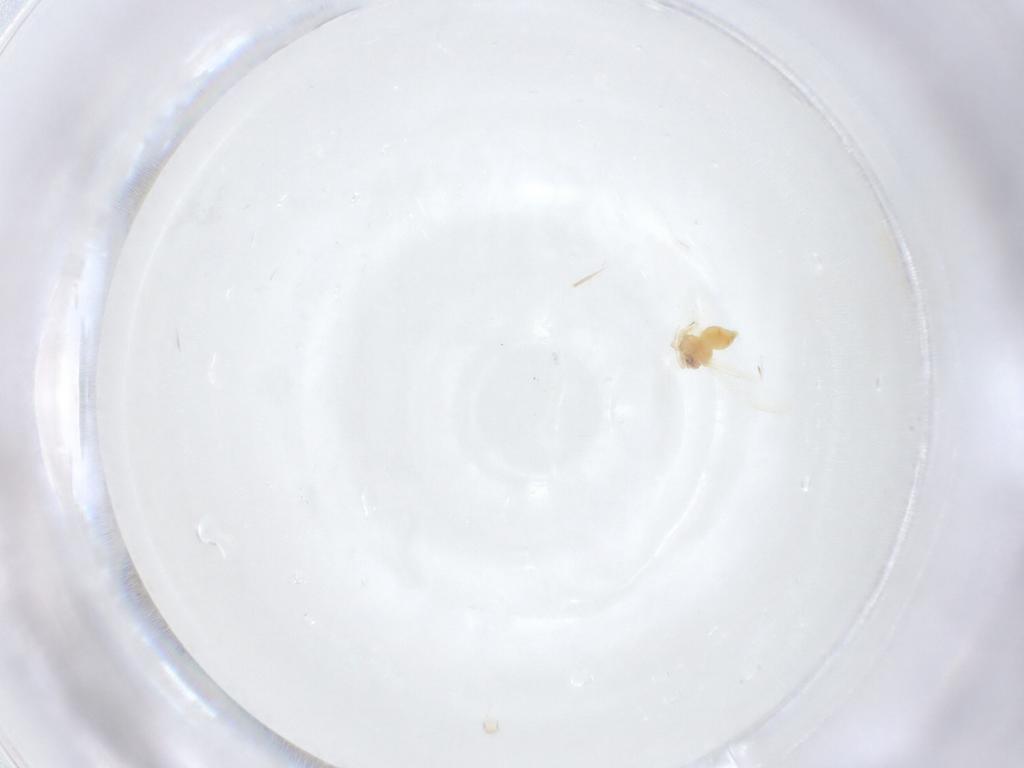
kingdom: Animalia
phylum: Arthropoda
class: Insecta
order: Hemiptera
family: Aleyrodidae
